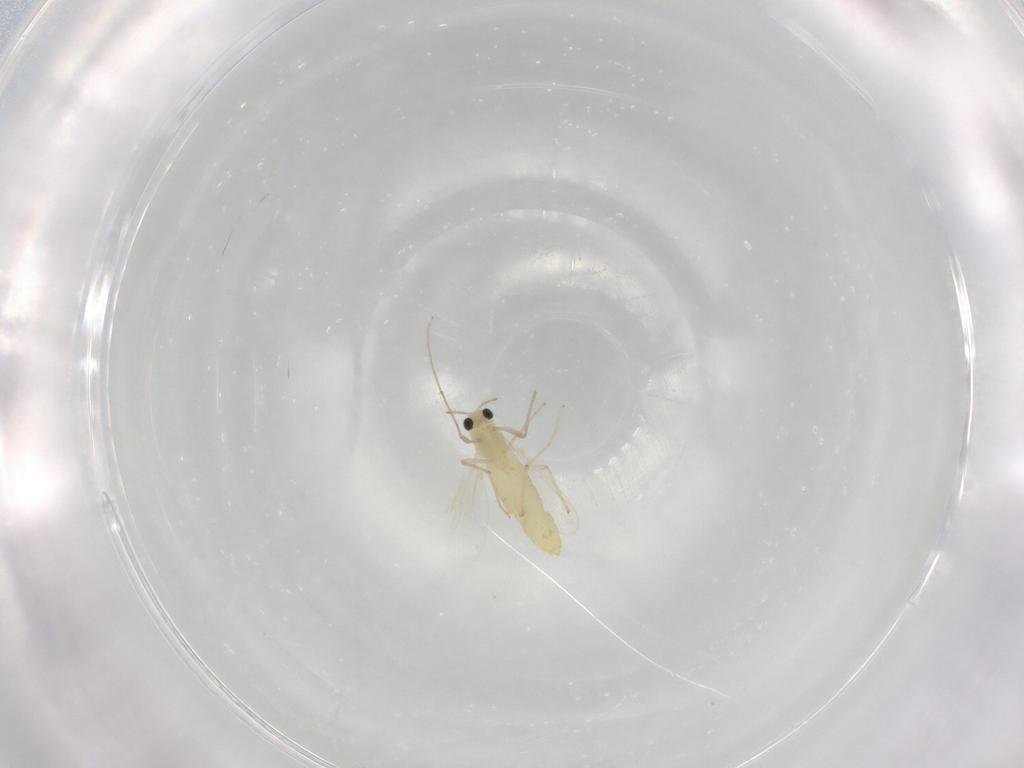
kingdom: Animalia
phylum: Arthropoda
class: Insecta
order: Diptera
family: Chironomidae
